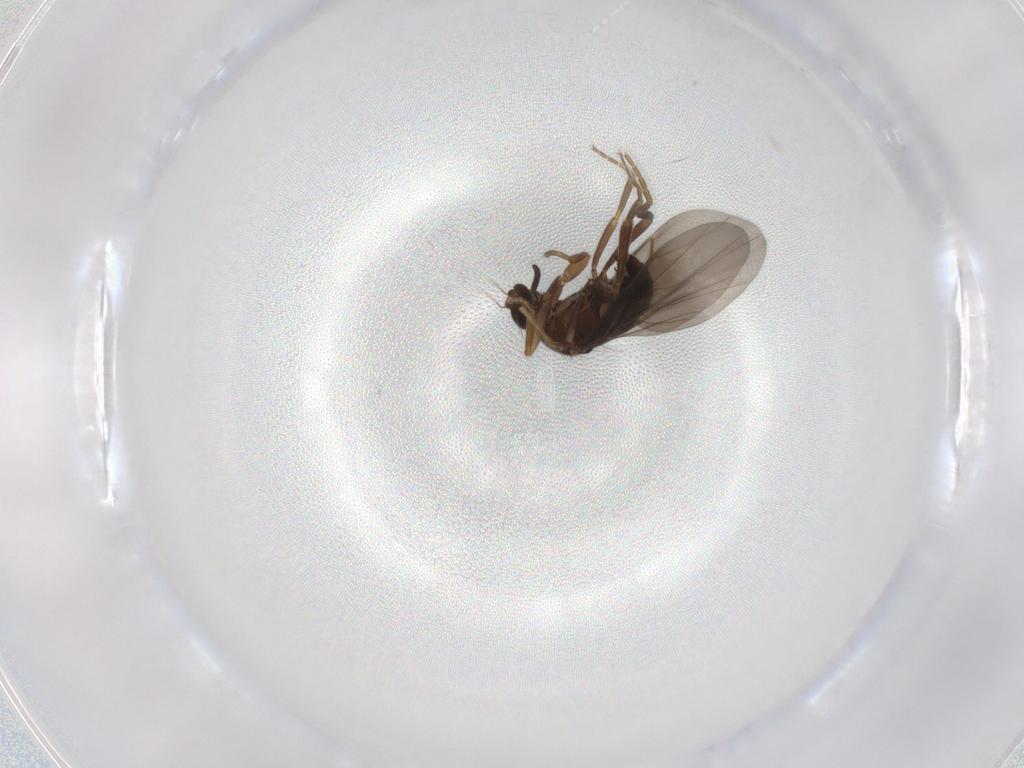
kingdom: Animalia
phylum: Arthropoda
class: Insecta
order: Diptera
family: Phoridae
